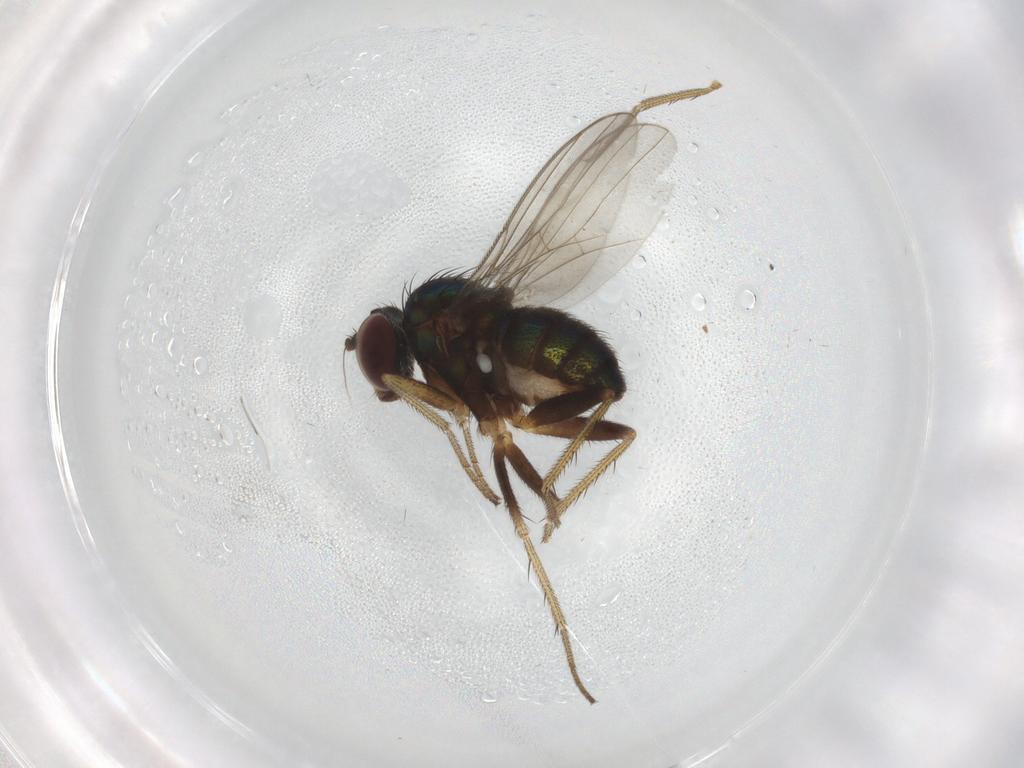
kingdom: Animalia
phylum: Arthropoda
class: Insecta
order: Diptera
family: Dolichopodidae
